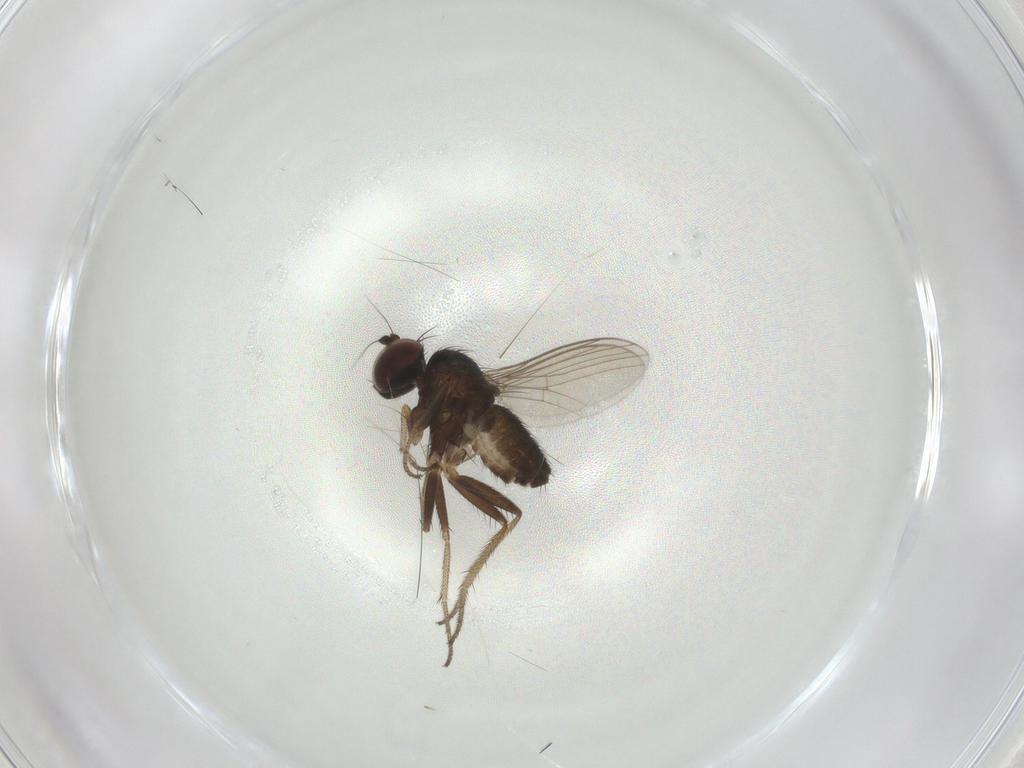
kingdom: Animalia
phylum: Arthropoda
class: Insecta
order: Diptera
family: Dolichopodidae
